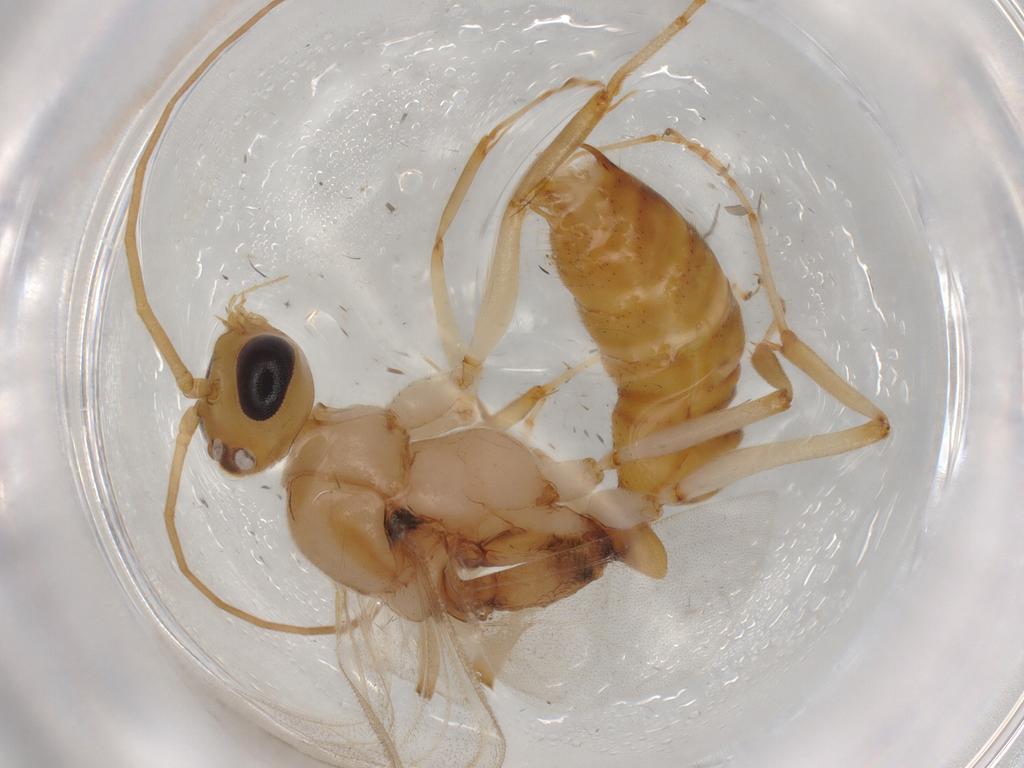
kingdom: Animalia
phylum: Arthropoda
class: Insecta
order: Hymenoptera
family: Formicidae
